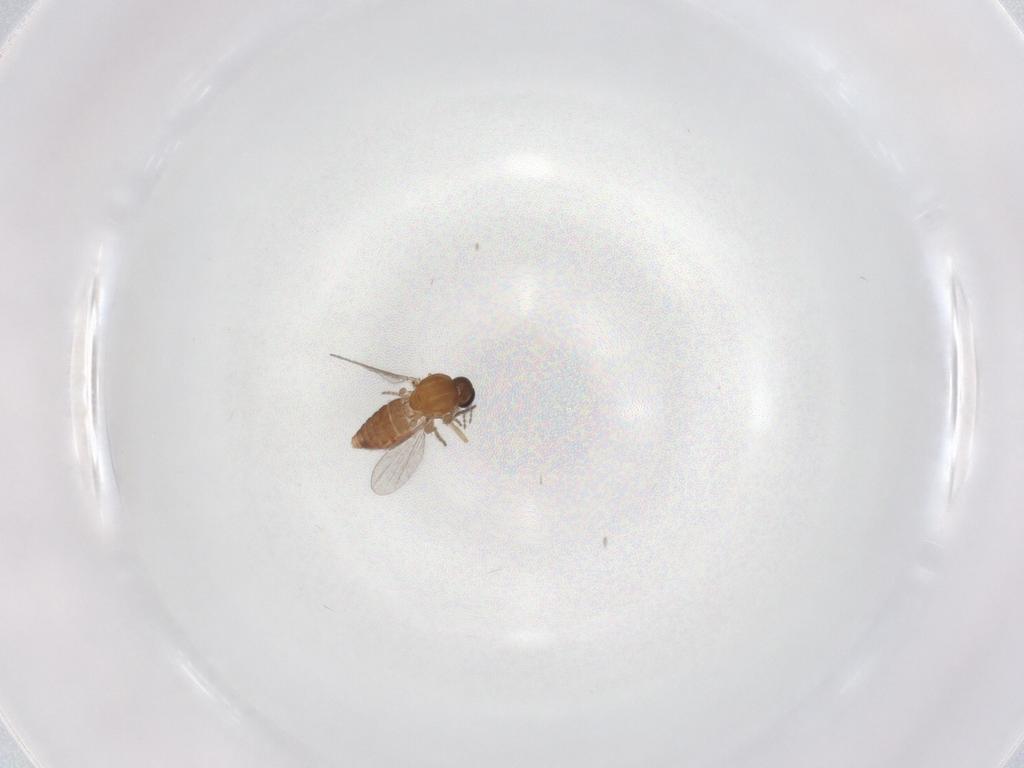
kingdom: Animalia
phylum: Arthropoda
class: Insecta
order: Diptera
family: Ceratopogonidae
